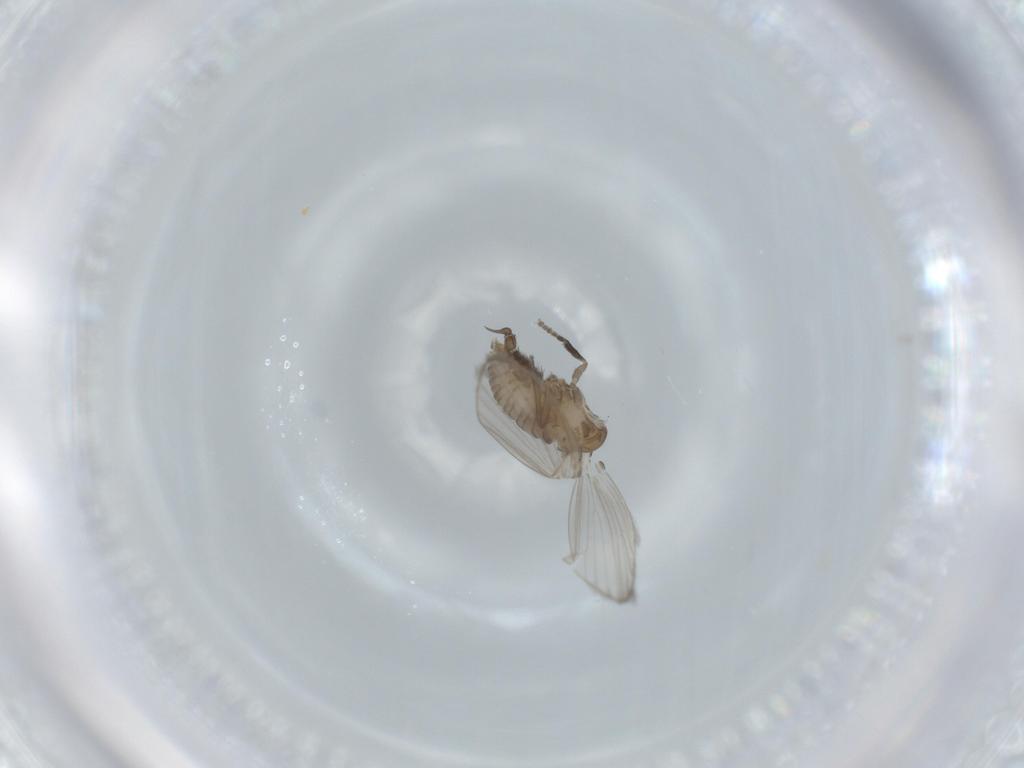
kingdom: Animalia
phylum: Arthropoda
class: Insecta
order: Diptera
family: Psychodidae
